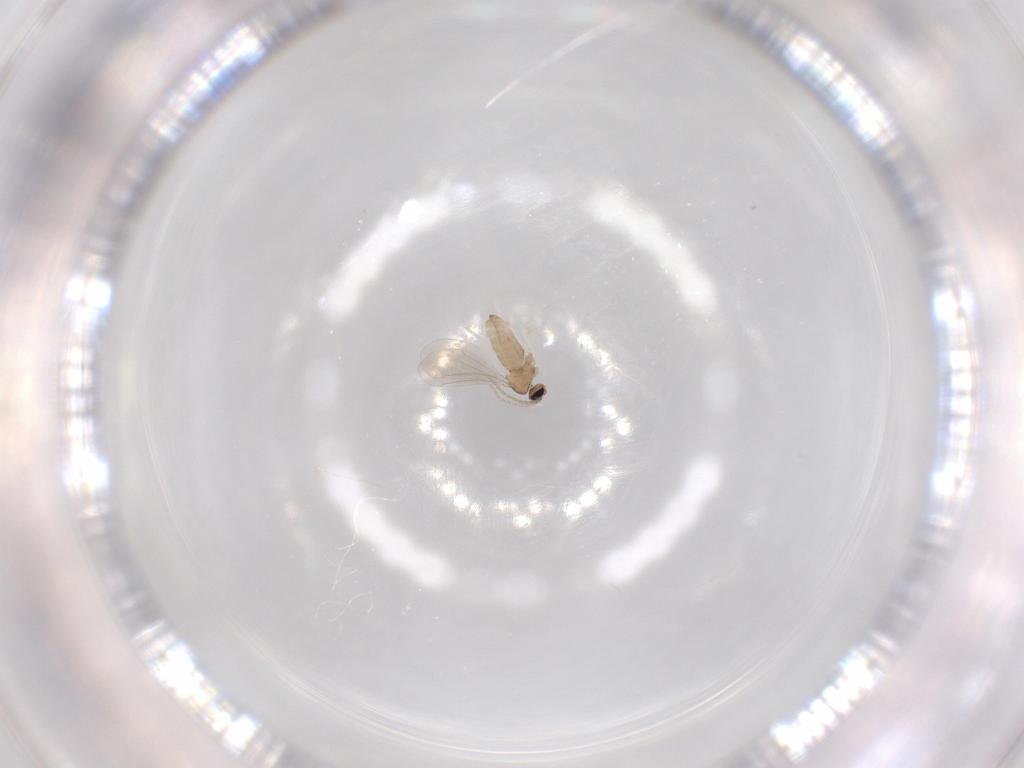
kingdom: Animalia
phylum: Arthropoda
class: Insecta
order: Diptera
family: Cecidomyiidae
